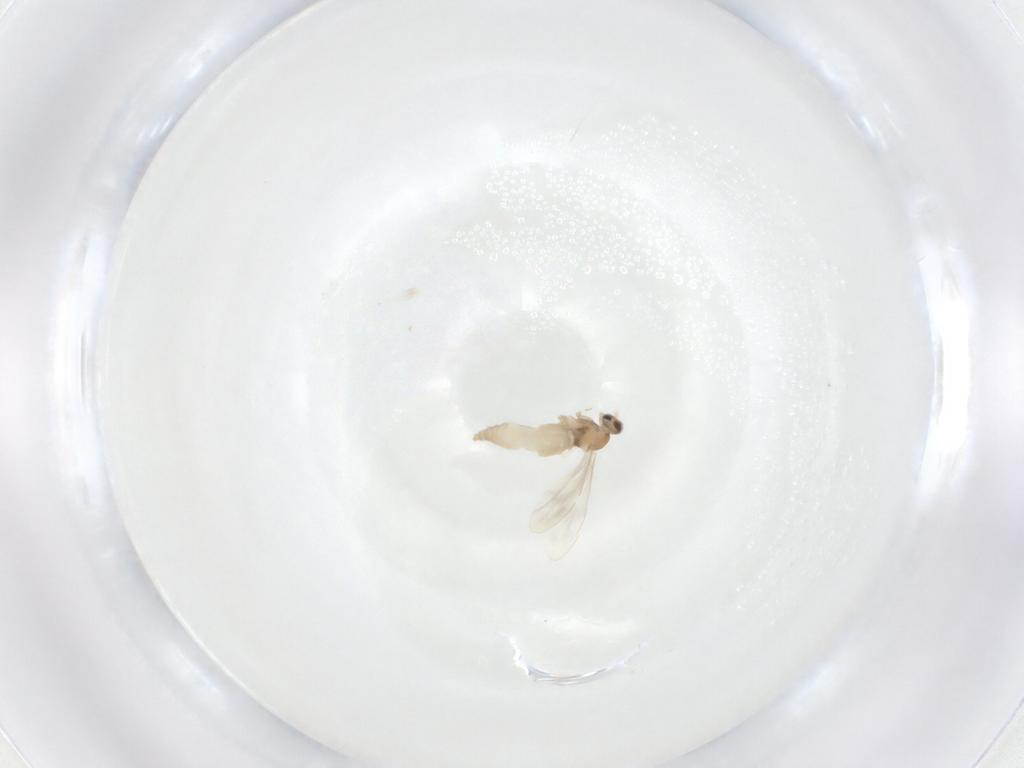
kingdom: Animalia
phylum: Arthropoda
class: Insecta
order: Diptera
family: Cecidomyiidae
